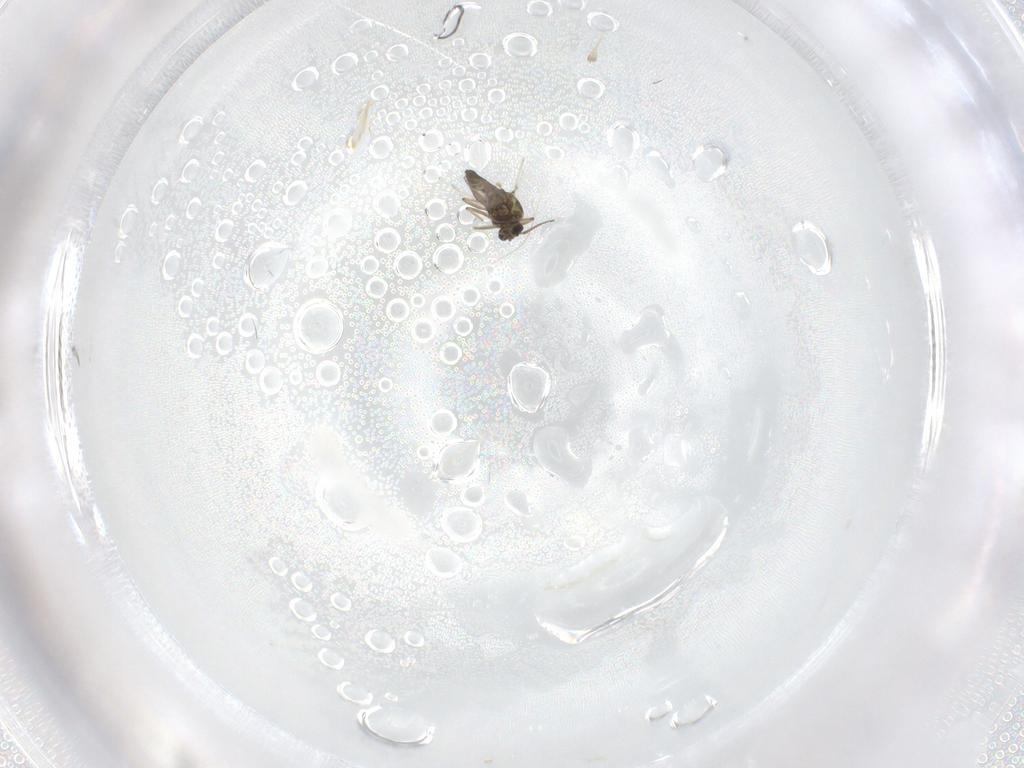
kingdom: Animalia
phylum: Arthropoda
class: Insecta
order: Diptera
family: Ceratopogonidae
